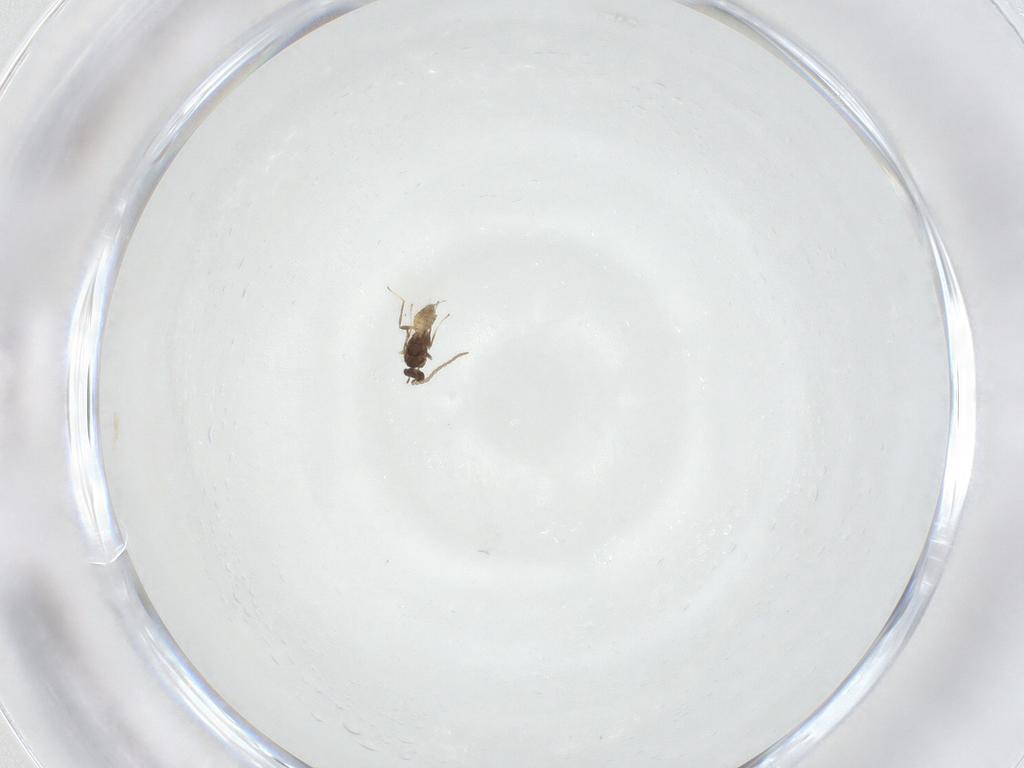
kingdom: Animalia
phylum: Arthropoda
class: Insecta
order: Hymenoptera
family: Mymaridae
